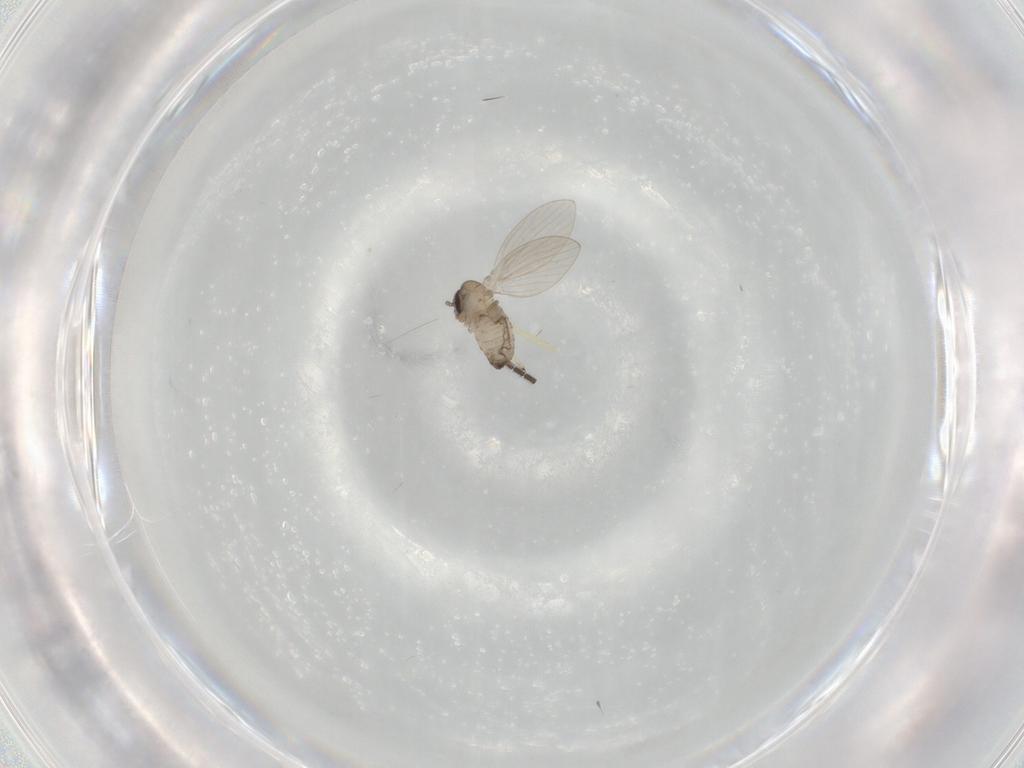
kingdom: Animalia
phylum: Arthropoda
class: Insecta
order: Diptera
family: Sciaridae
